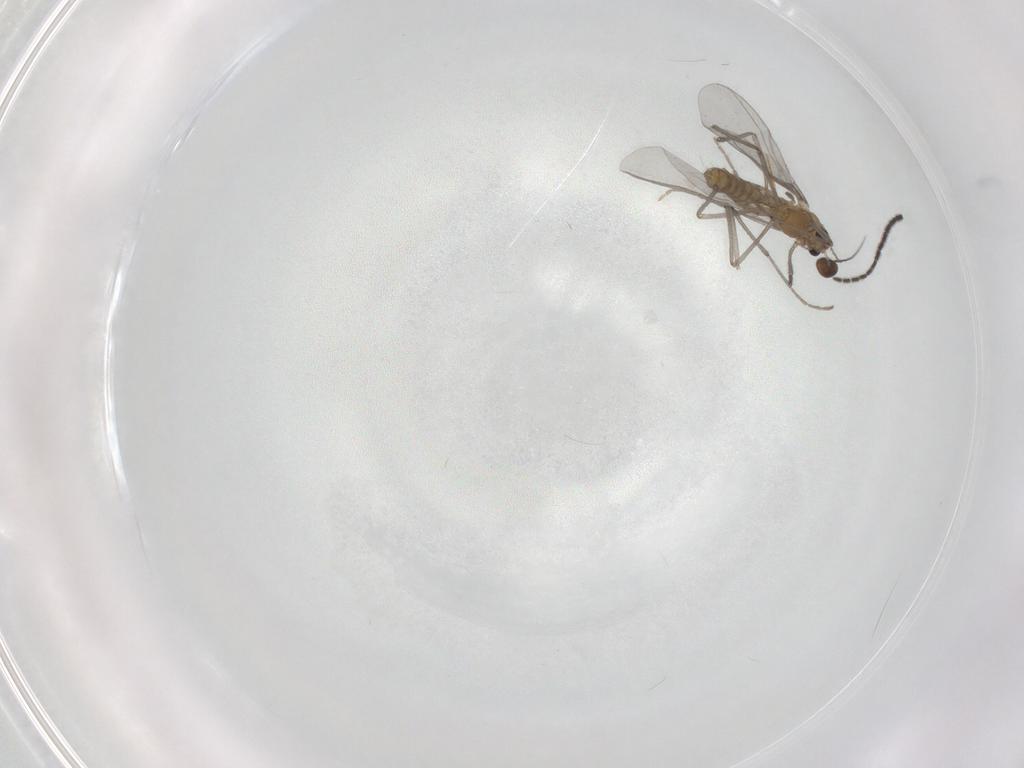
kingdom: Animalia
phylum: Arthropoda
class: Insecta
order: Diptera
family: Chironomidae
